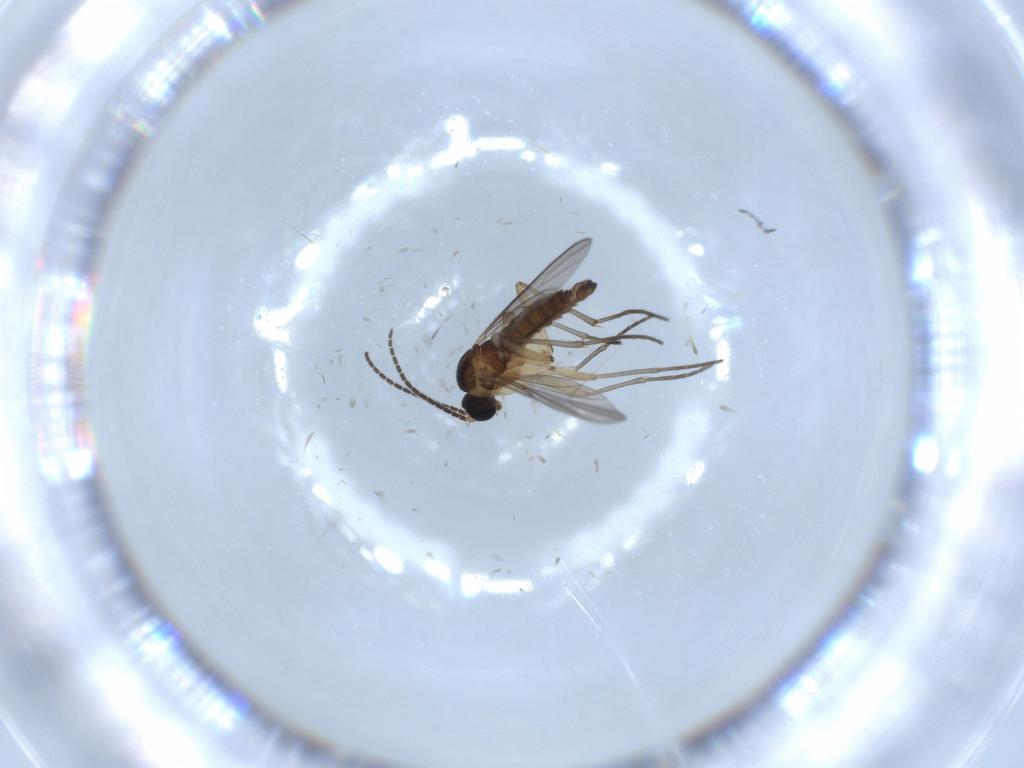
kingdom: Animalia
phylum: Arthropoda
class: Insecta
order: Diptera
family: Sciaridae
